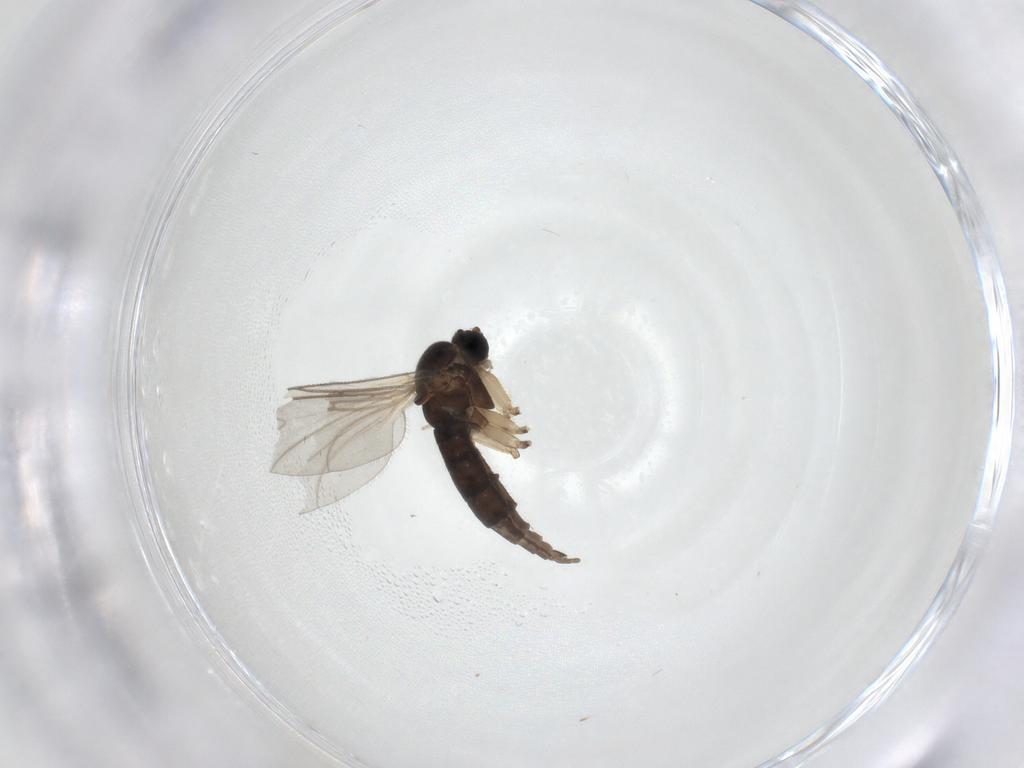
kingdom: Animalia
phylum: Arthropoda
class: Insecta
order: Diptera
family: Sciaridae
